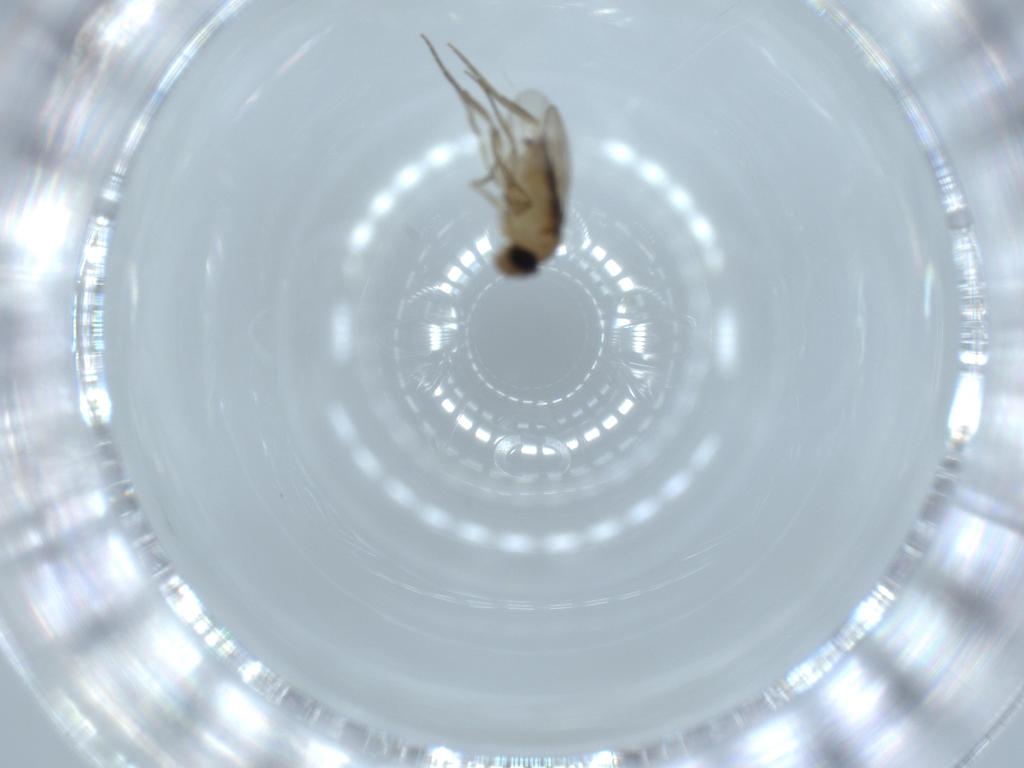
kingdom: Animalia
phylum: Arthropoda
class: Insecta
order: Diptera
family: Phoridae
